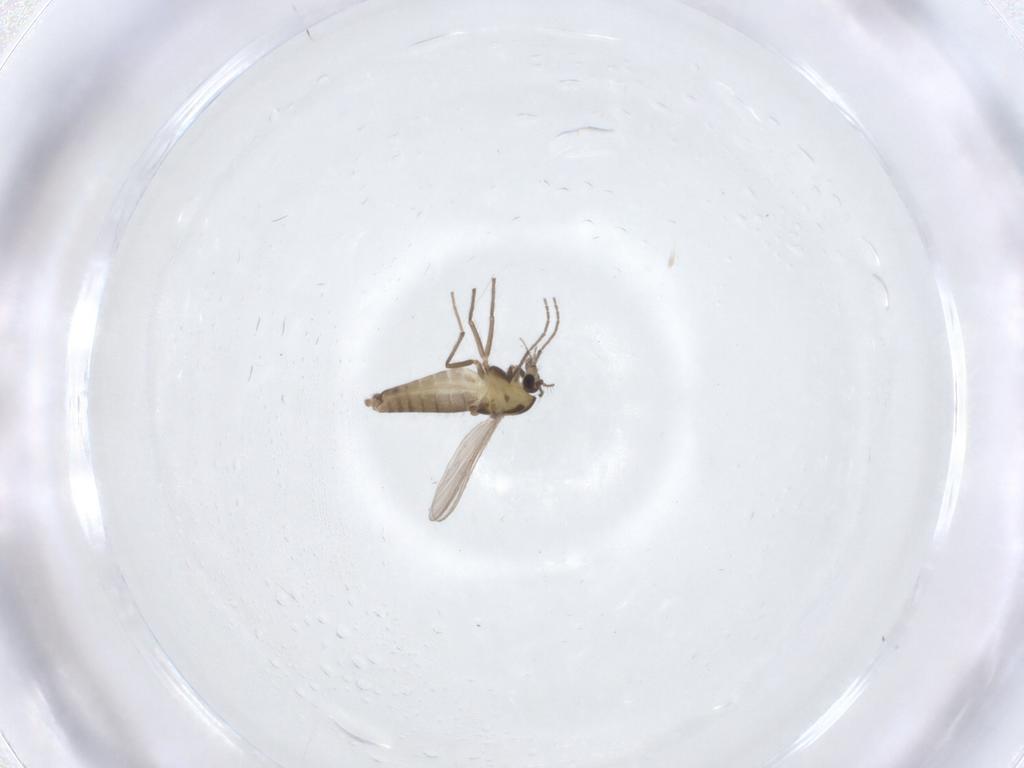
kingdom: Animalia
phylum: Arthropoda
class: Insecta
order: Diptera
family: Chironomidae
